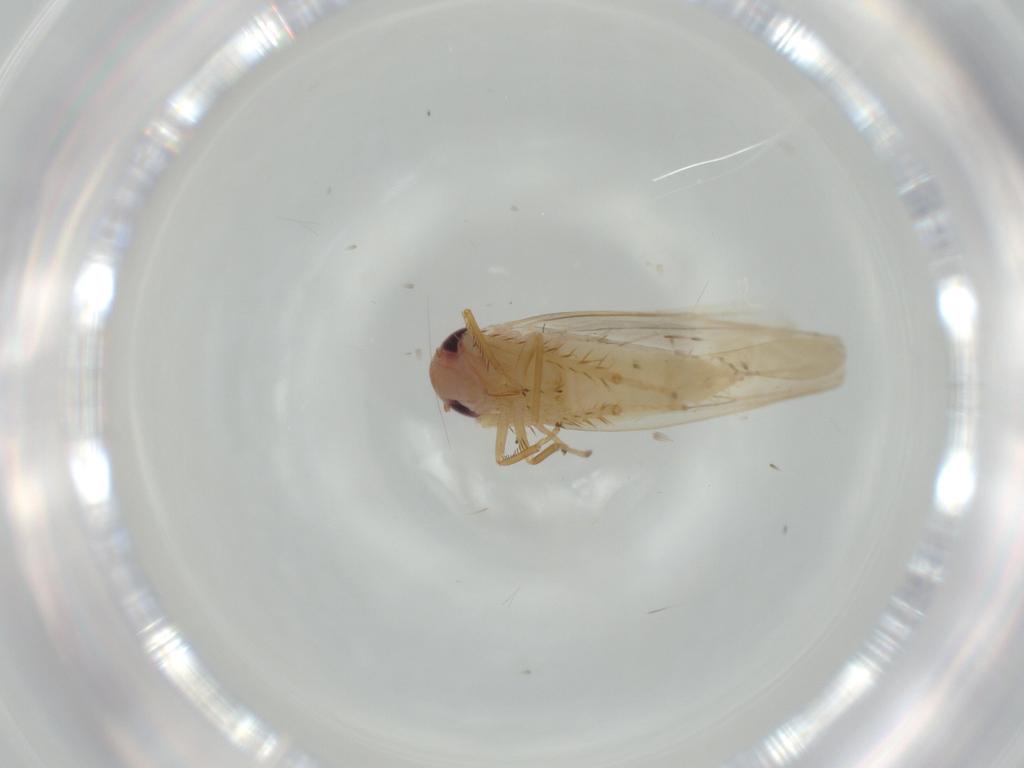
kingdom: Animalia
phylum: Arthropoda
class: Insecta
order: Hemiptera
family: Cicadellidae
